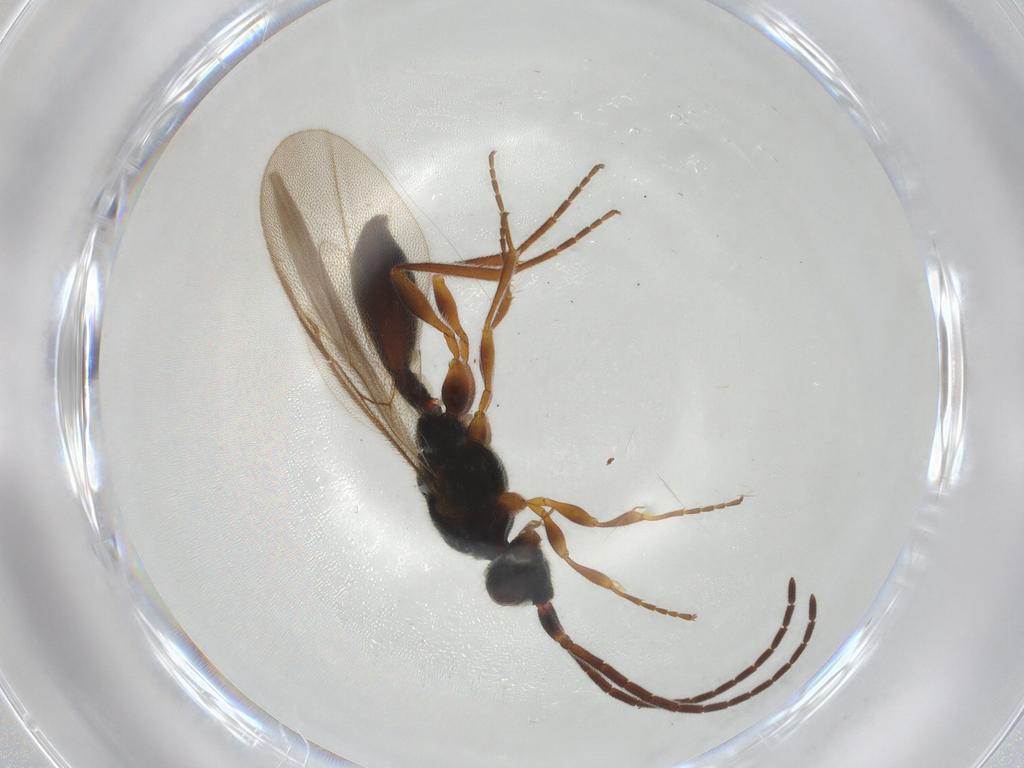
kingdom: Animalia
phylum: Arthropoda
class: Insecta
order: Hymenoptera
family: Diapriidae
